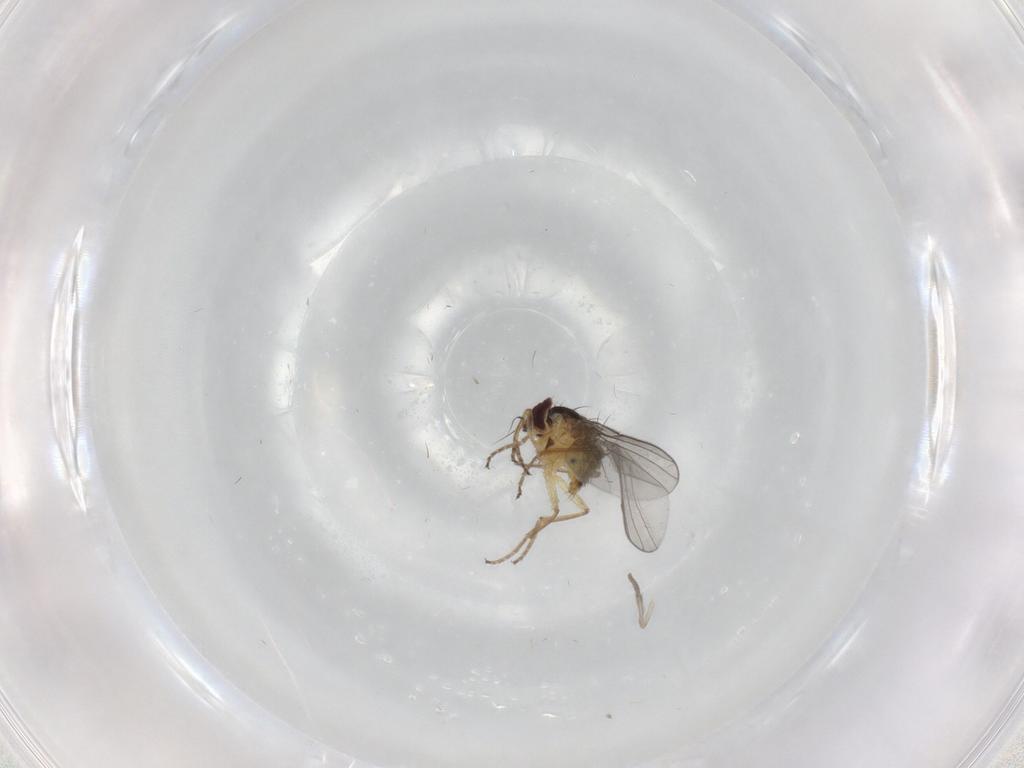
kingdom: Animalia
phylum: Arthropoda
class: Insecta
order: Diptera
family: Agromyzidae
